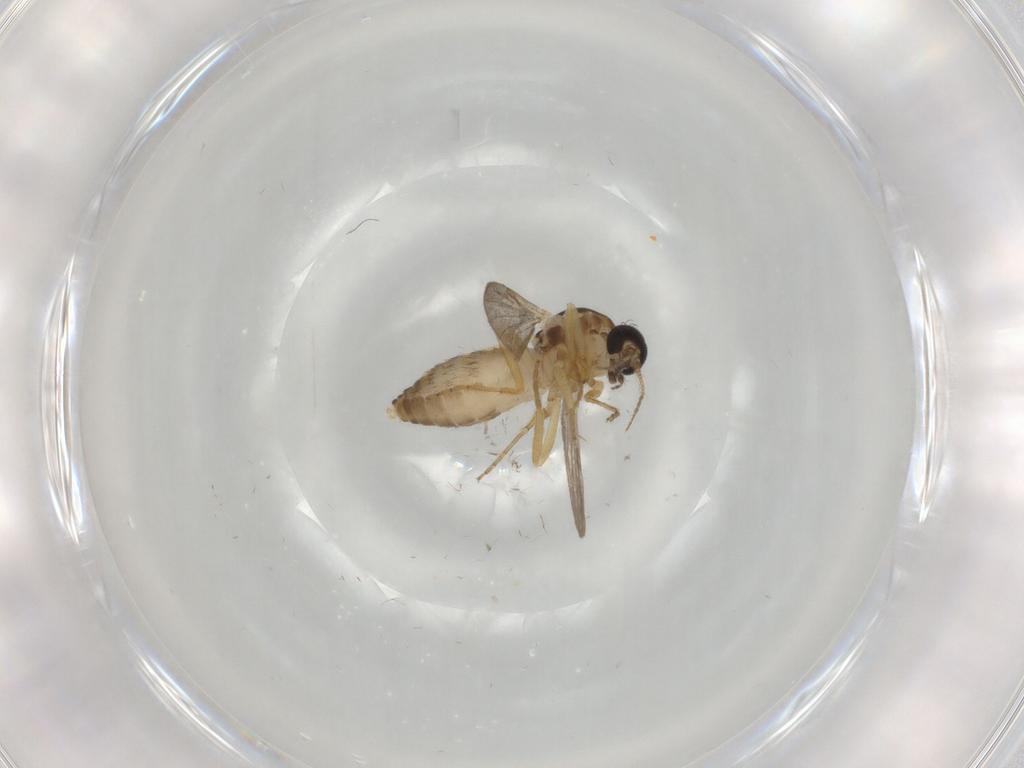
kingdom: Animalia
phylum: Arthropoda
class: Insecta
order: Diptera
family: Ceratopogonidae
